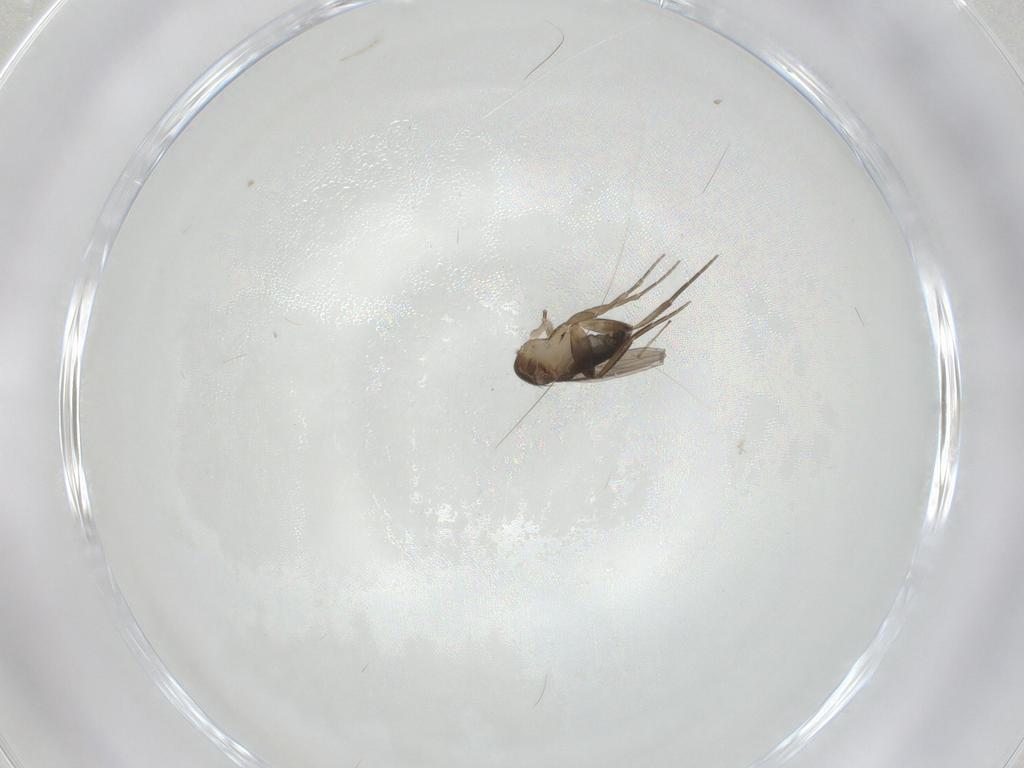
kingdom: Animalia
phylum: Arthropoda
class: Insecta
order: Diptera
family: Phoridae
